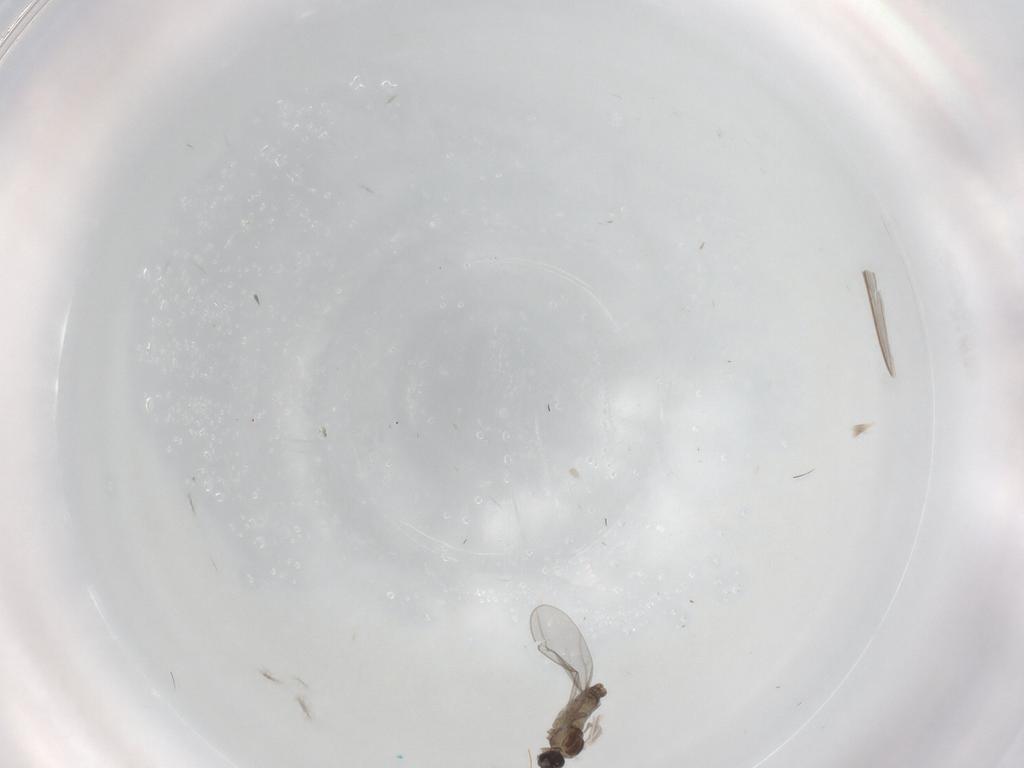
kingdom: Animalia
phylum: Arthropoda
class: Insecta
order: Diptera
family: Cecidomyiidae
